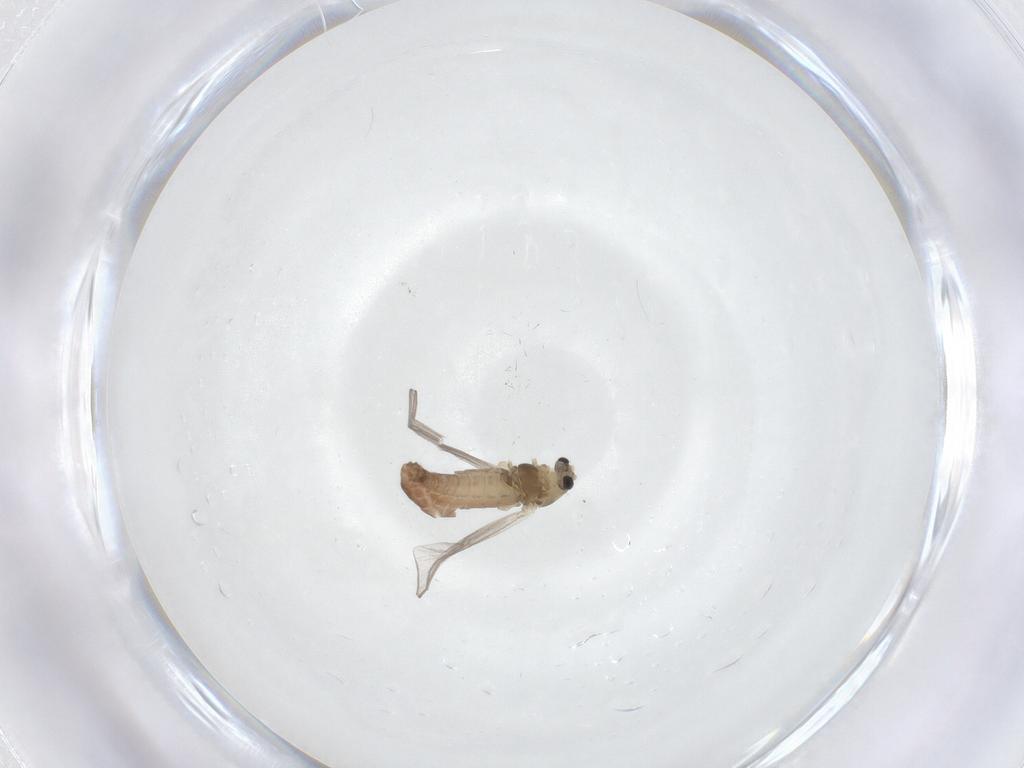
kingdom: Animalia
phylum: Arthropoda
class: Insecta
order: Diptera
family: Chironomidae
